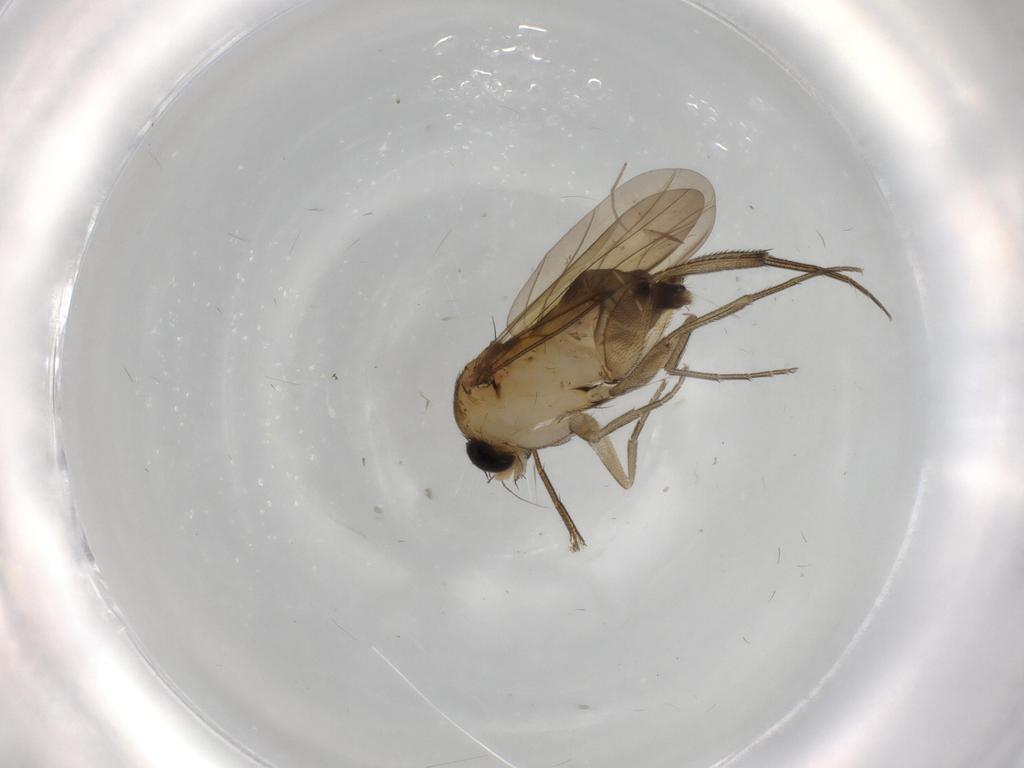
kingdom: Animalia
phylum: Arthropoda
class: Insecta
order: Diptera
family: Phoridae
